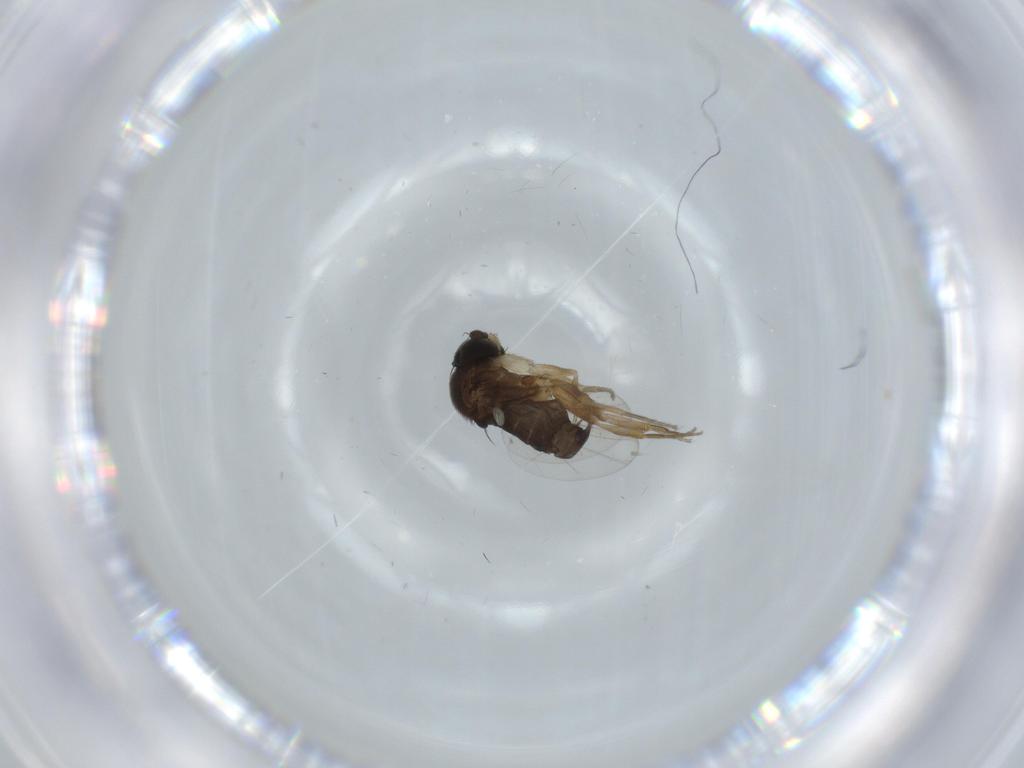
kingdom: Animalia
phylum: Arthropoda
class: Insecta
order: Diptera
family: Phoridae
